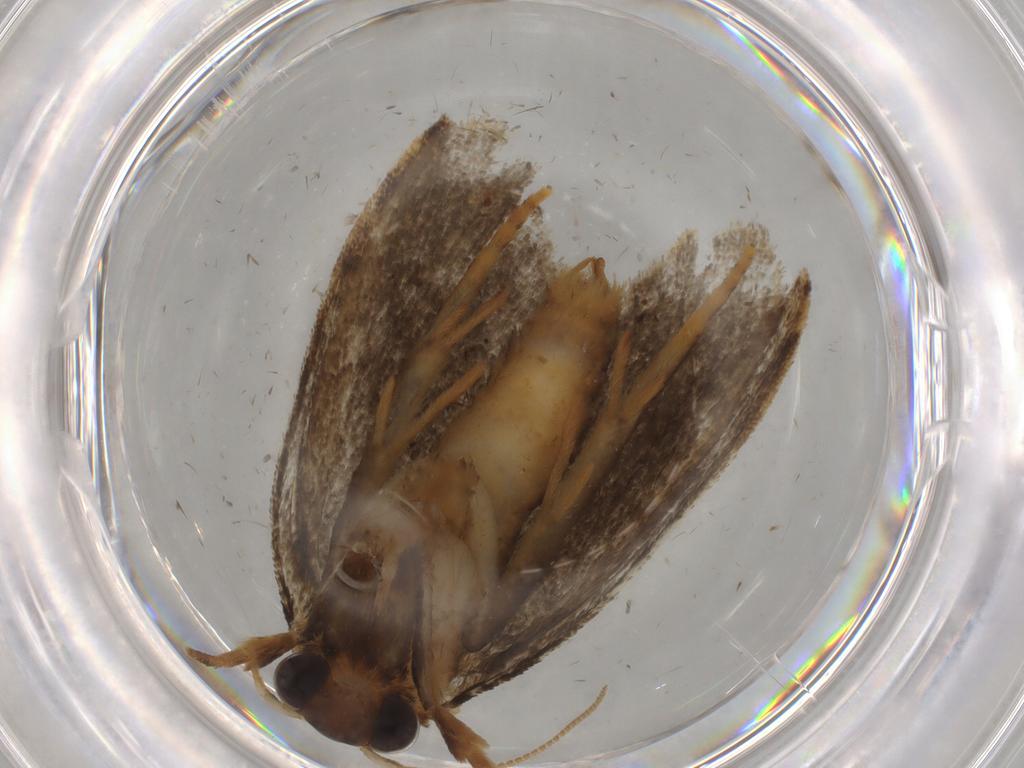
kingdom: Animalia
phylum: Arthropoda
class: Insecta
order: Lepidoptera
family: Tineidae
